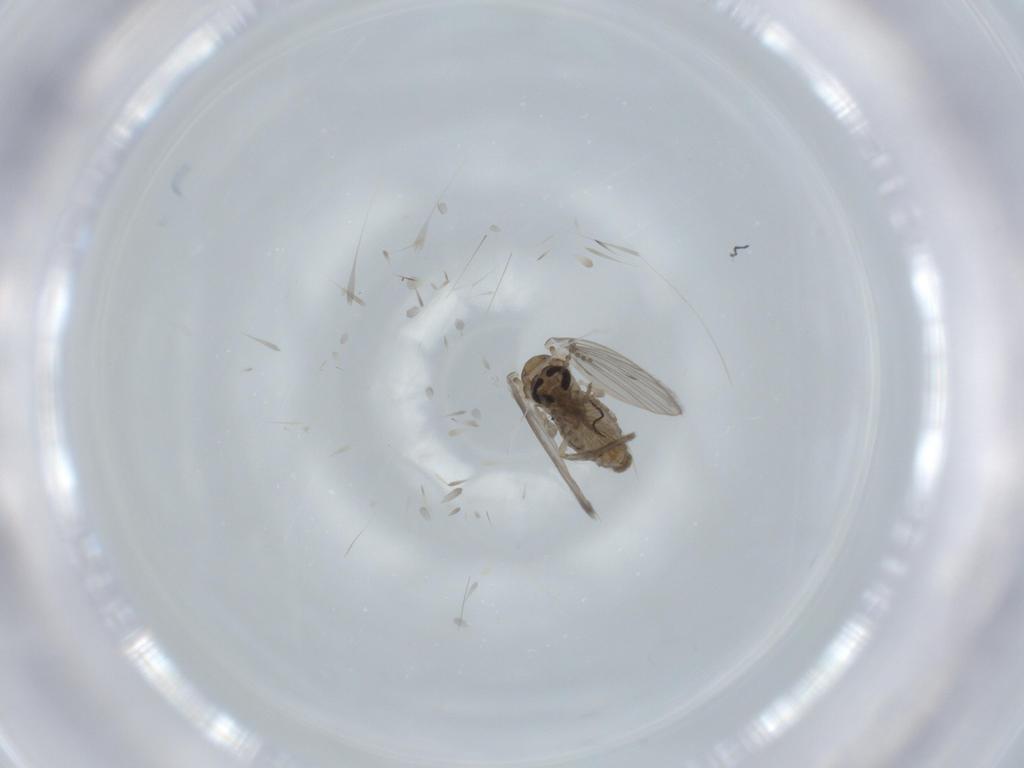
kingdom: Animalia
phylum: Arthropoda
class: Insecta
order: Diptera
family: Psychodidae
